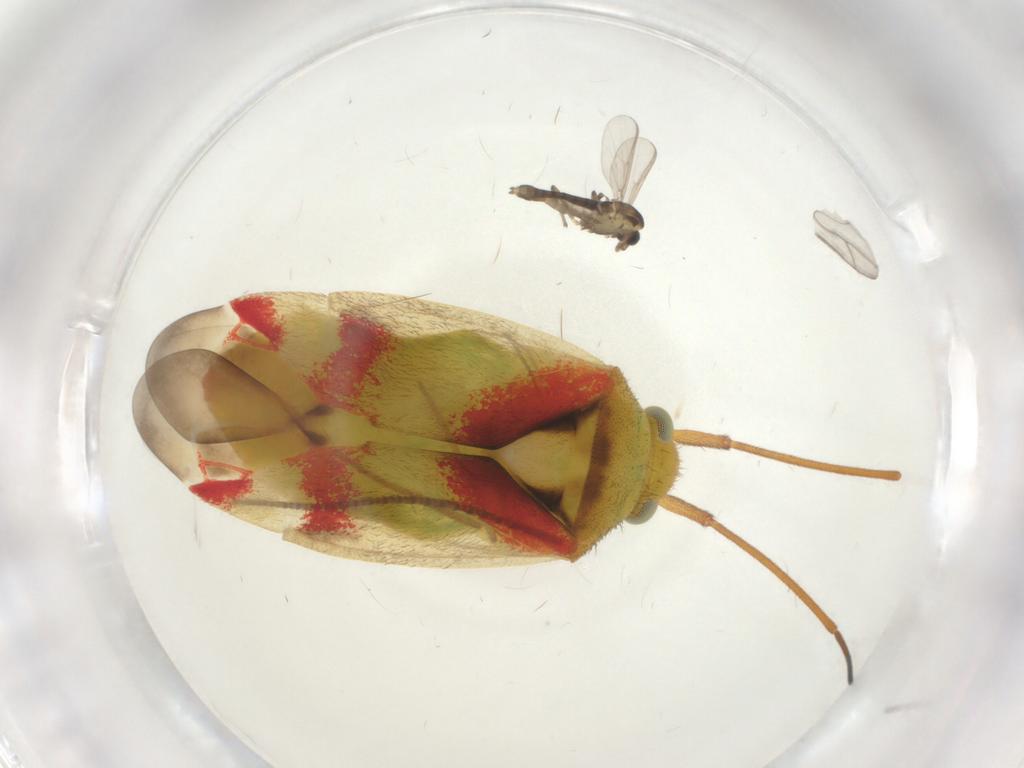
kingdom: Animalia
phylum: Arthropoda
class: Insecta
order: Hemiptera
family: Miridae
